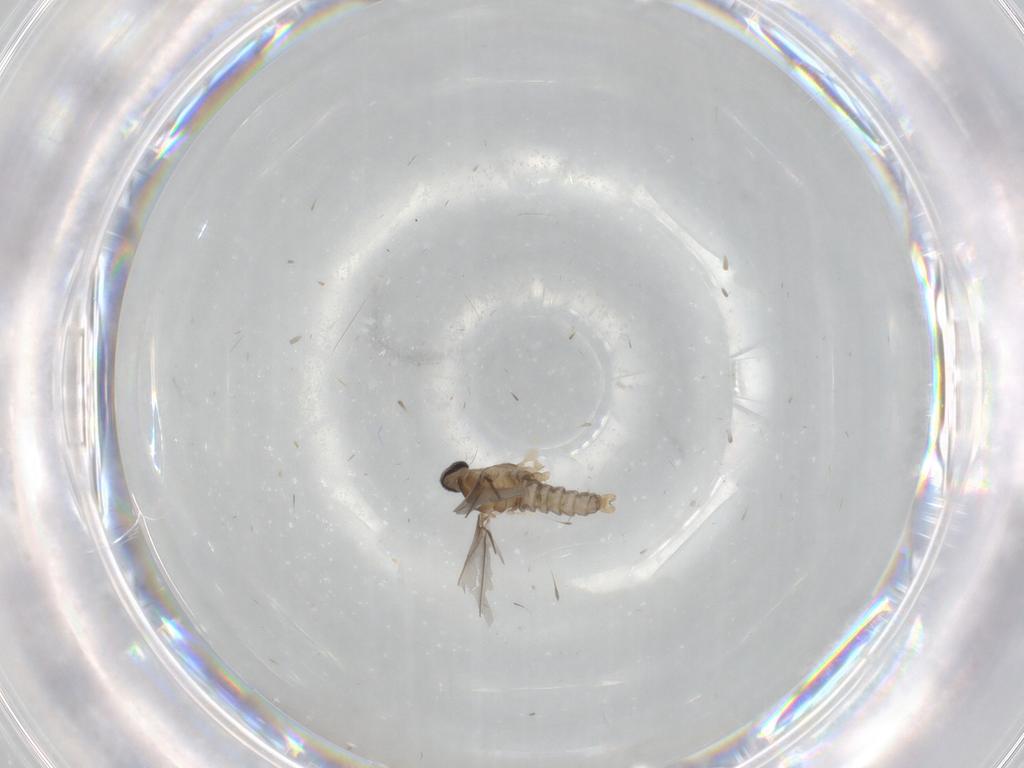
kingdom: Animalia
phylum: Arthropoda
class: Insecta
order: Diptera
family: Cecidomyiidae
